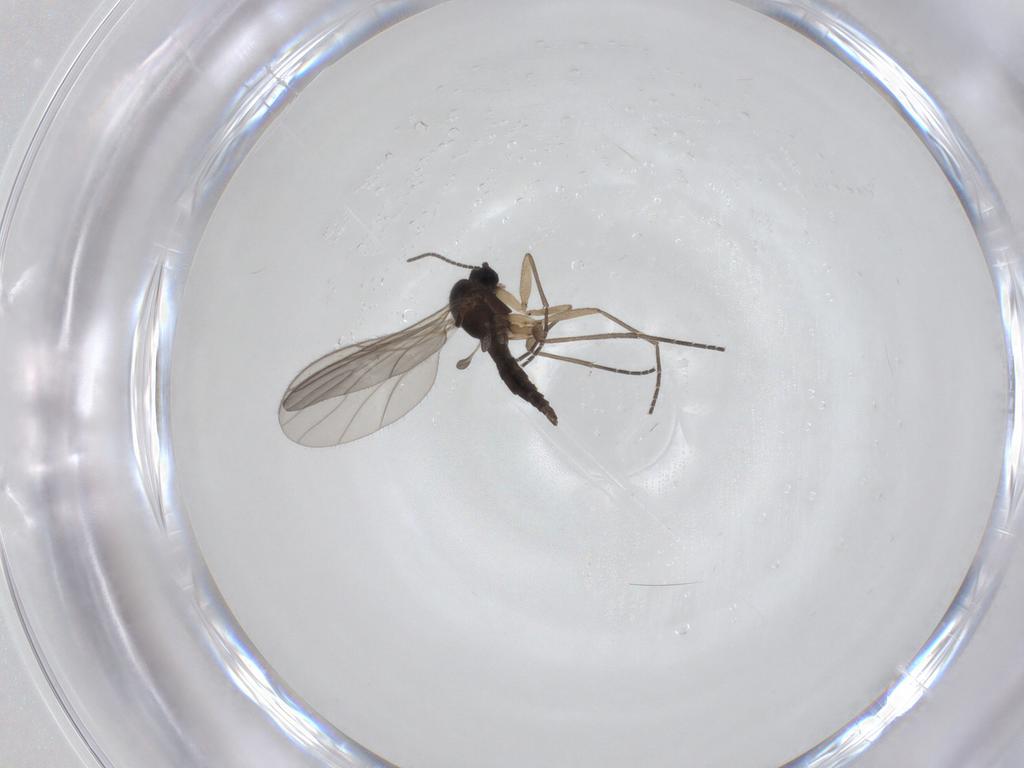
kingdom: Animalia
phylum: Arthropoda
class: Insecta
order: Diptera
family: Sciaridae
